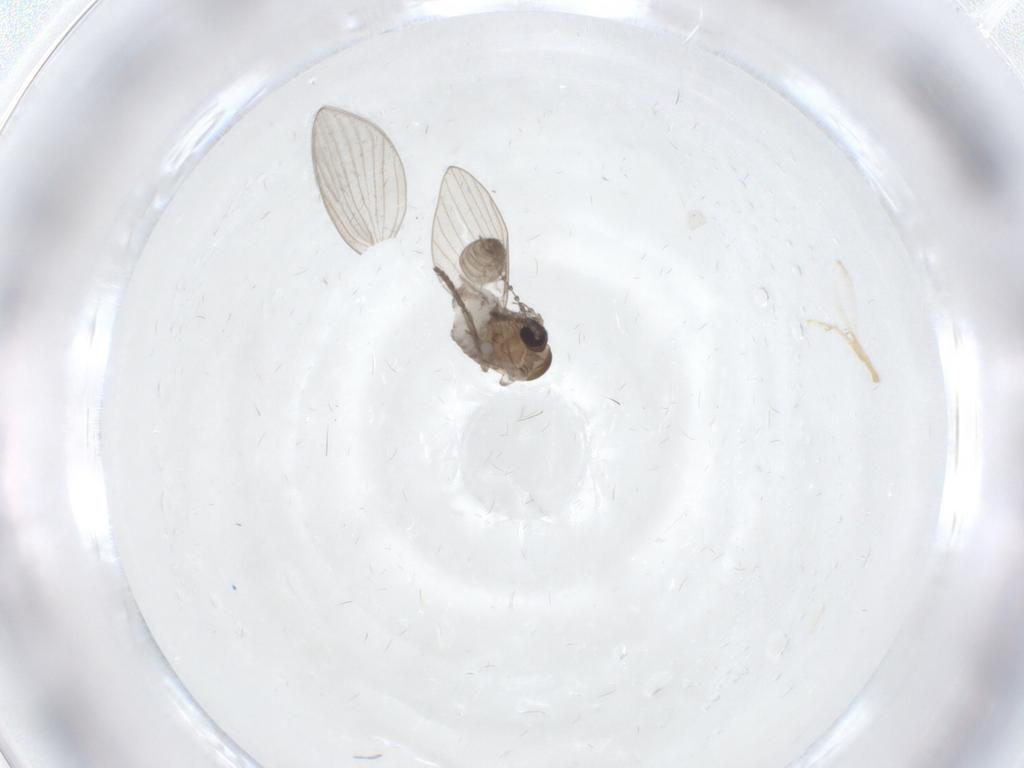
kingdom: Animalia
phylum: Arthropoda
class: Insecta
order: Diptera
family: Psychodidae
